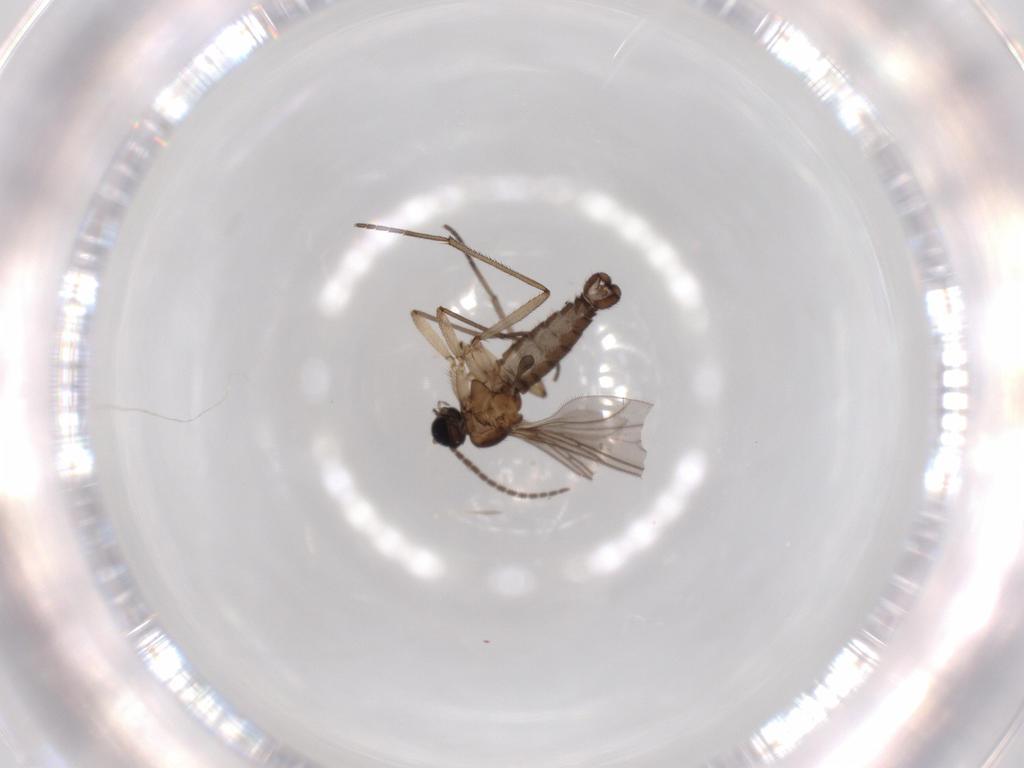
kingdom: Animalia
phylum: Arthropoda
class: Insecta
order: Diptera
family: Sciaridae
